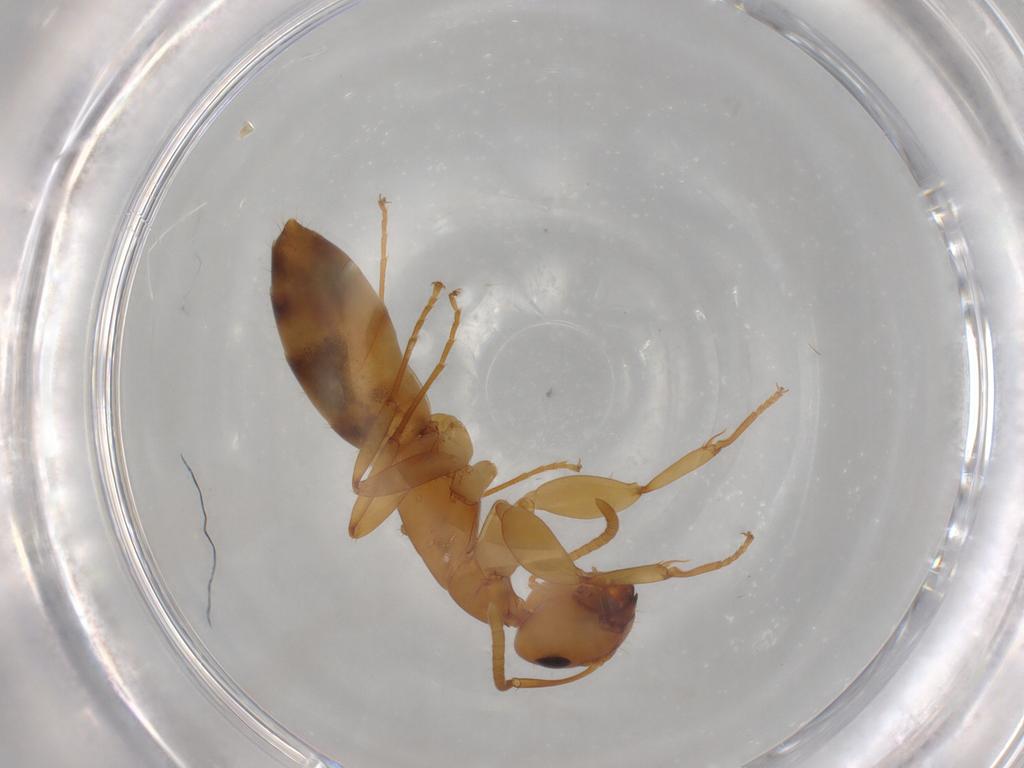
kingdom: Animalia
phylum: Arthropoda
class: Insecta
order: Hymenoptera
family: Formicidae
